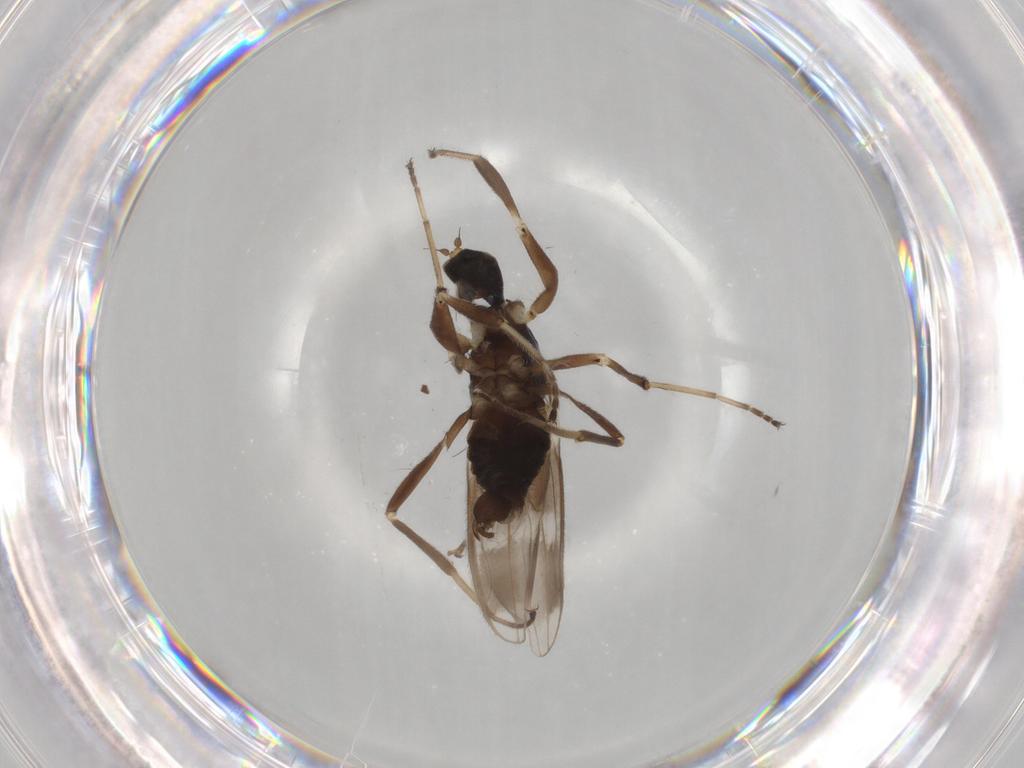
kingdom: Animalia
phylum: Arthropoda
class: Insecta
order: Diptera
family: Hybotidae
